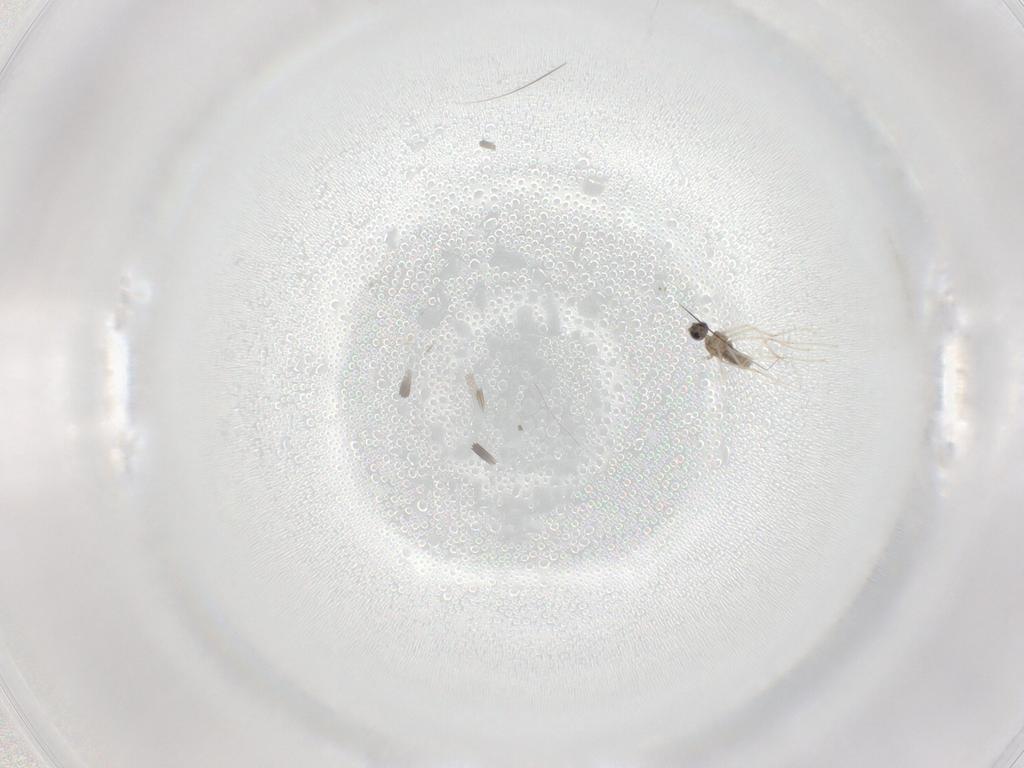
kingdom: Animalia
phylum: Arthropoda
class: Insecta
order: Diptera
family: Cecidomyiidae
